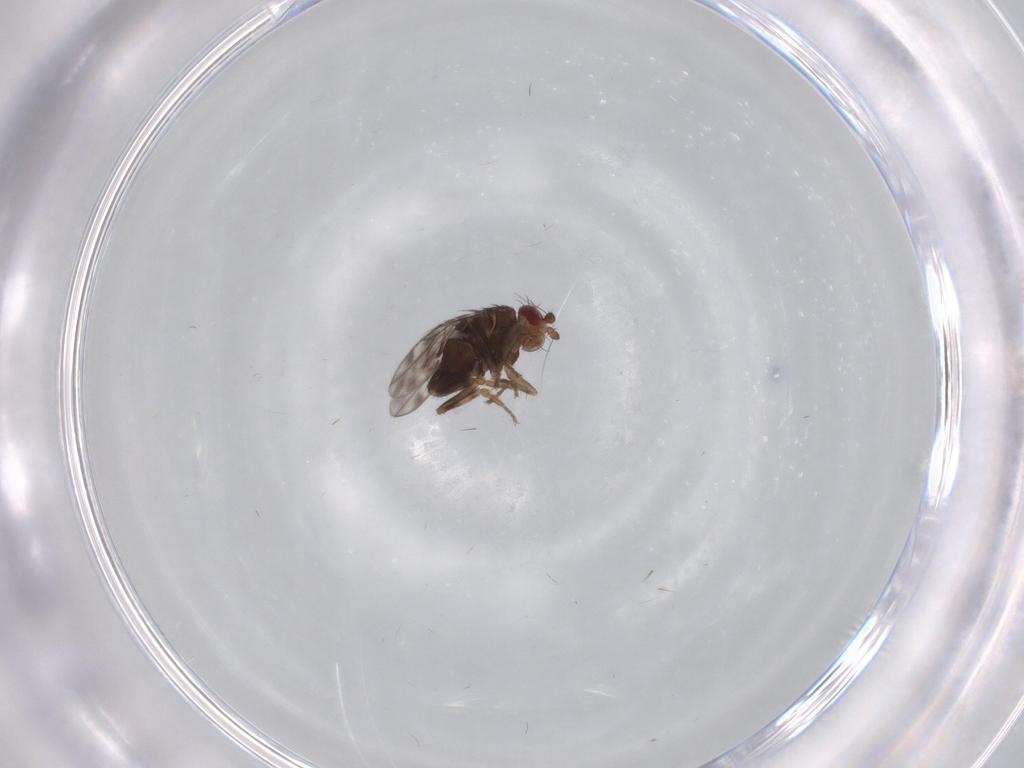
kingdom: Animalia
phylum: Arthropoda
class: Insecta
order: Diptera
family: Sphaeroceridae
